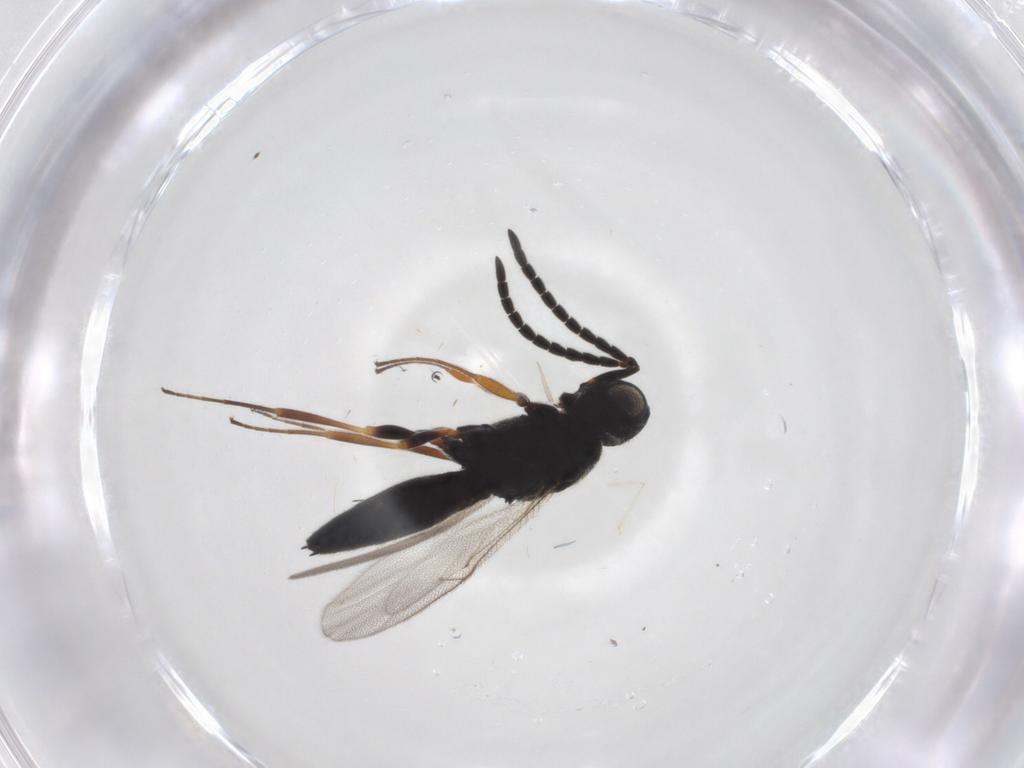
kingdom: Animalia
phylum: Arthropoda
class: Insecta
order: Hymenoptera
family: Scelionidae
